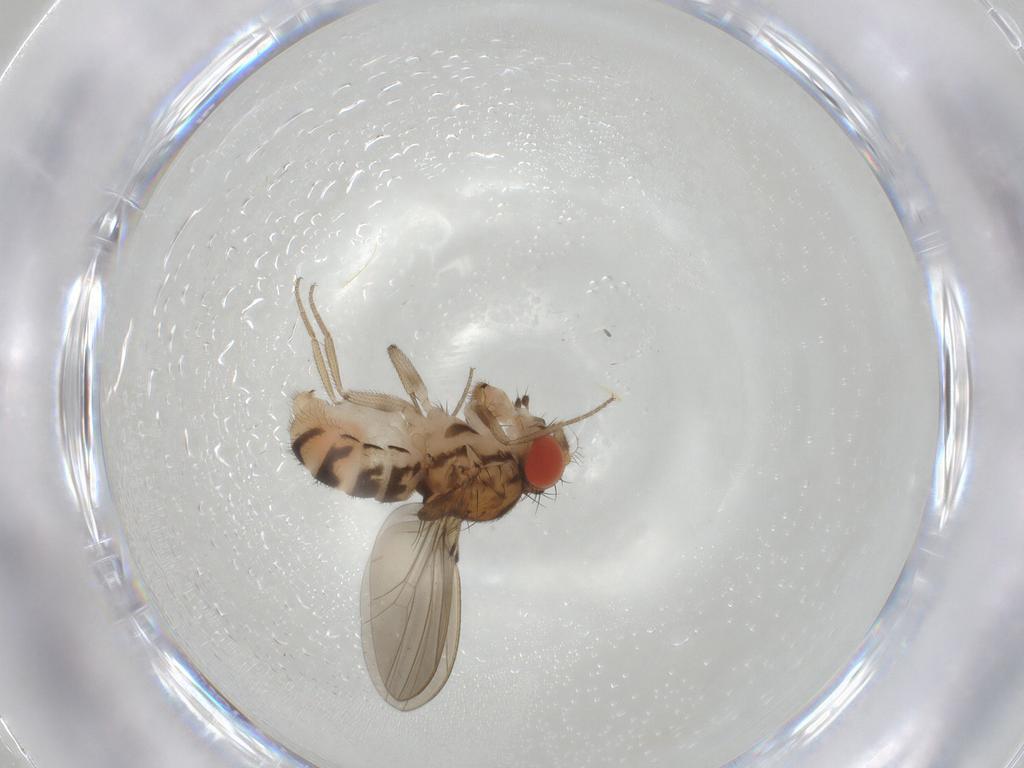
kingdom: Animalia
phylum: Arthropoda
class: Insecta
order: Diptera
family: Drosophilidae
